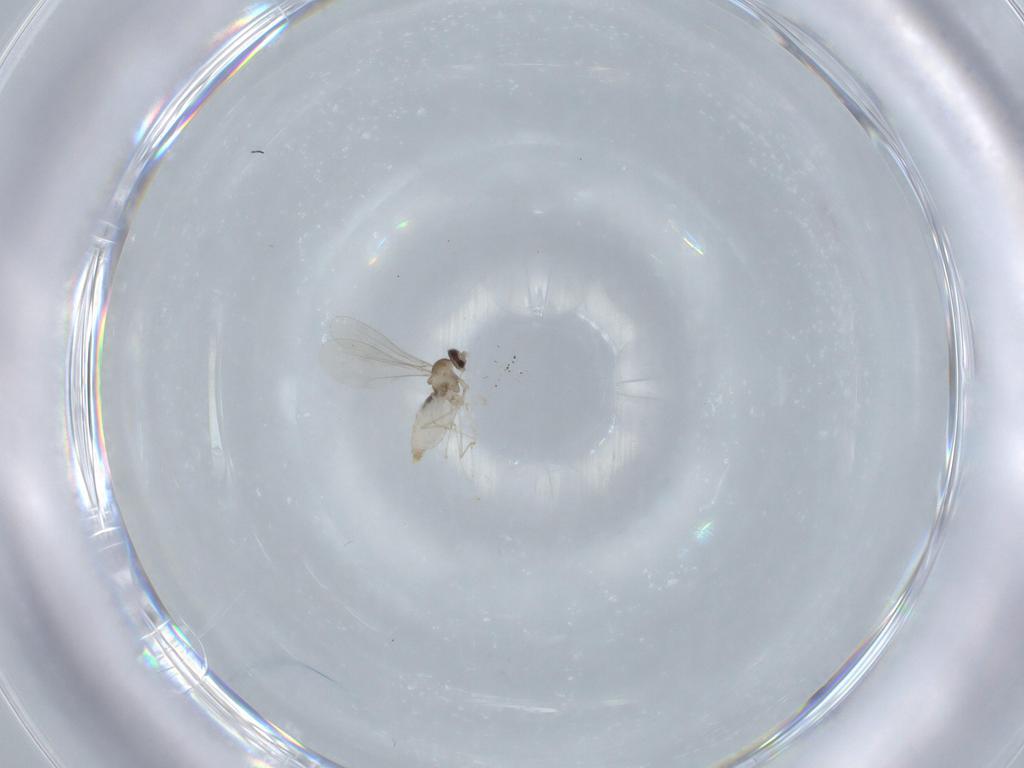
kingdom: Animalia
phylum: Arthropoda
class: Insecta
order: Diptera
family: Cecidomyiidae
